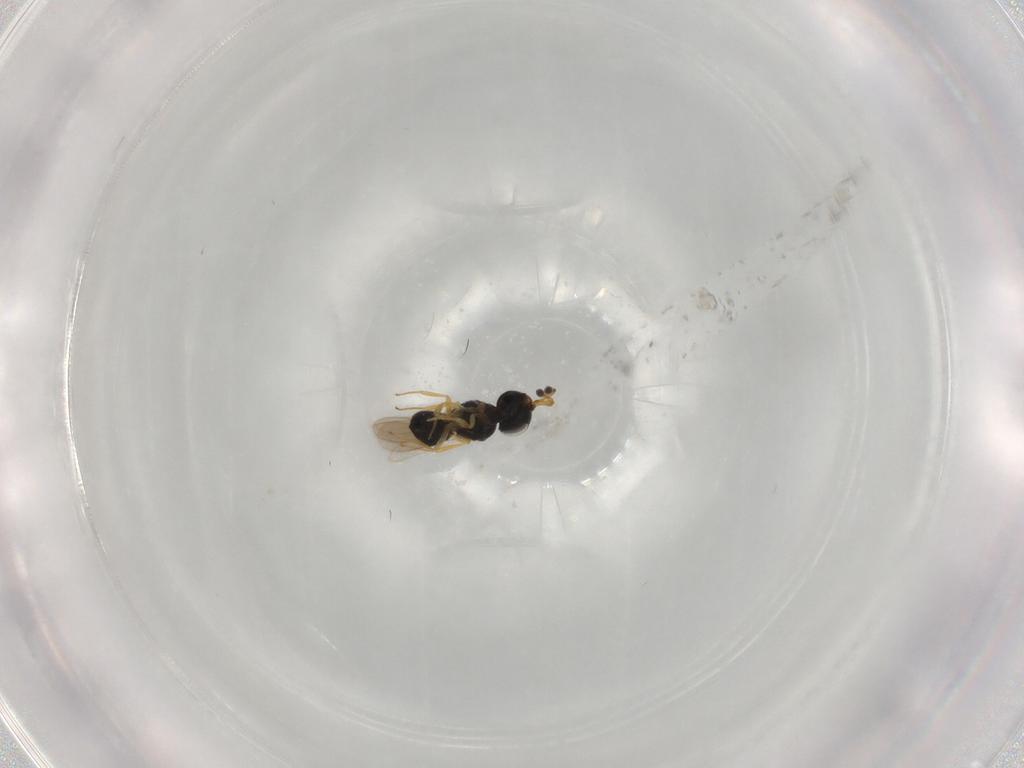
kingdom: Animalia
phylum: Arthropoda
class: Insecta
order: Hymenoptera
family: Scelionidae
